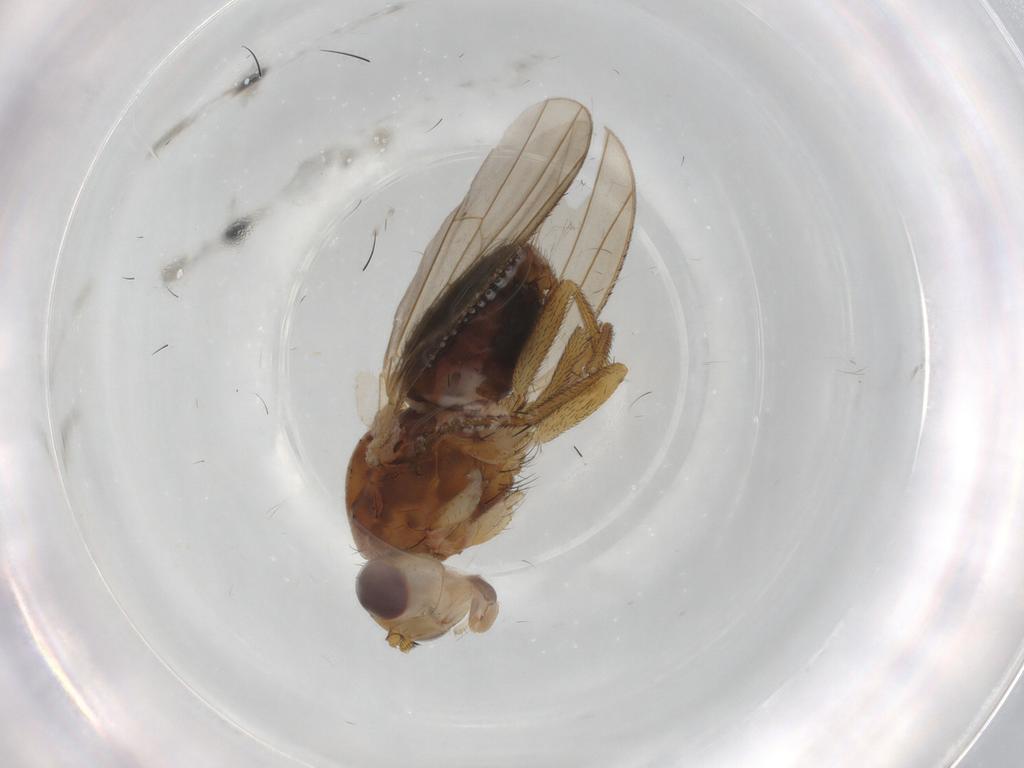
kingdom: Animalia
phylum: Arthropoda
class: Insecta
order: Diptera
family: Heleomyzidae
